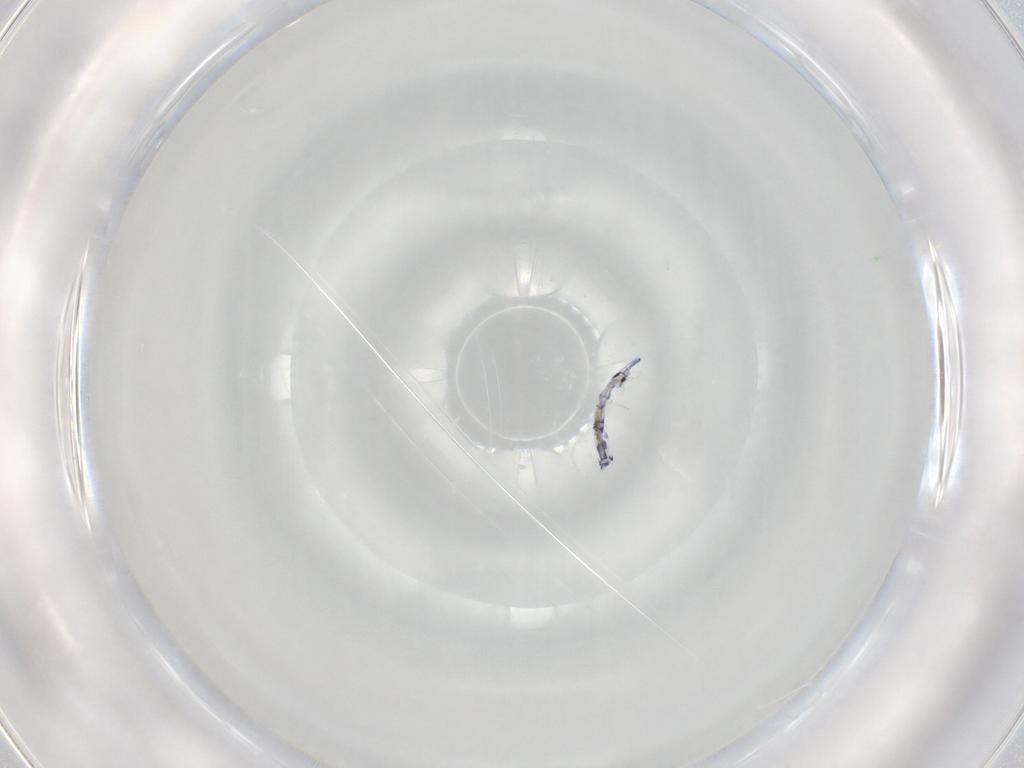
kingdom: Animalia
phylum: Arthropoda
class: Collembola
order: Entomobryomorpha
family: Entomobryidae
